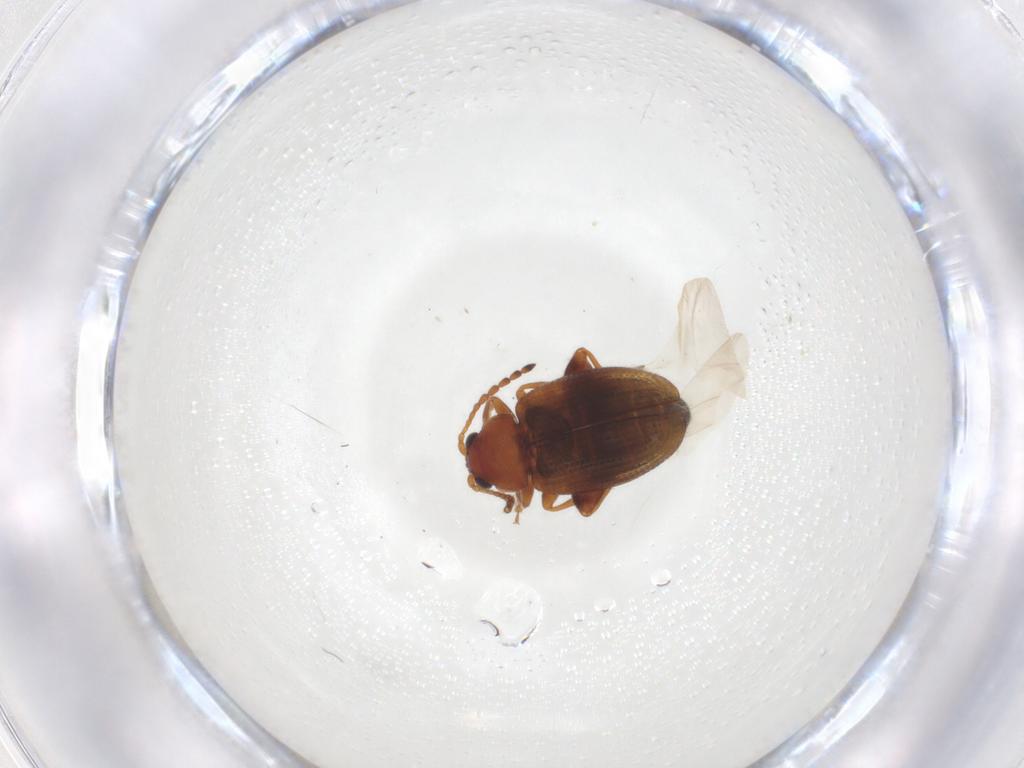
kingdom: Animalia
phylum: Arthropoda
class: Insecta
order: Coleoptera
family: Chrysomelidae
